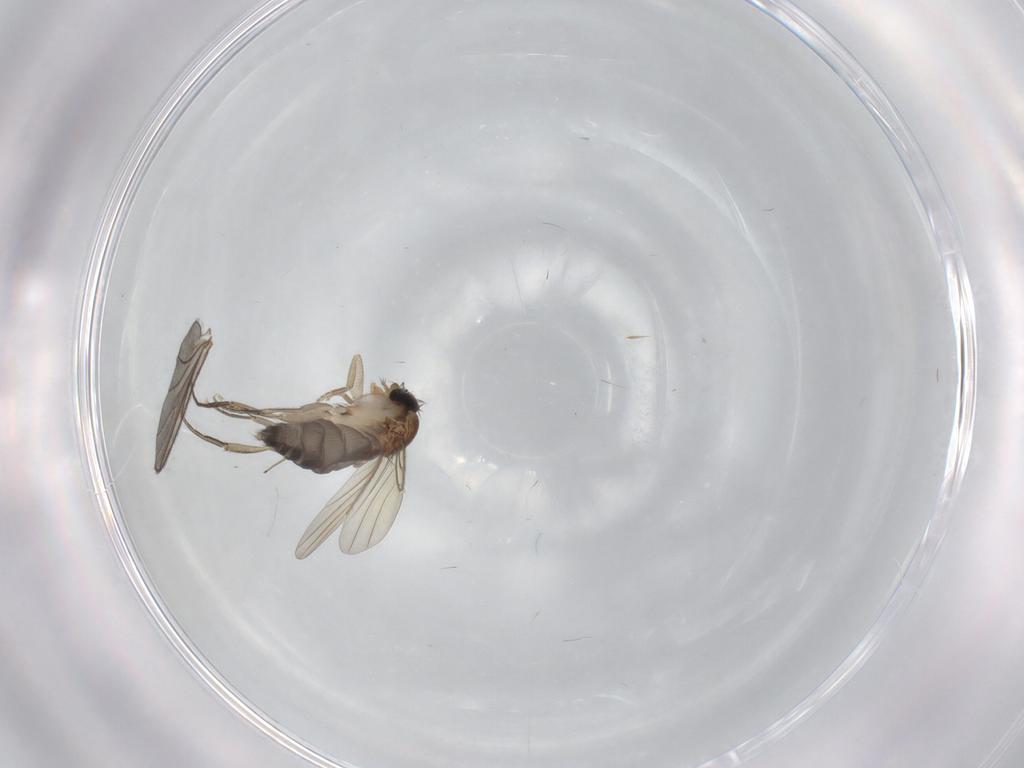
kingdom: Animalia
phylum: Arthropoda
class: Insecta
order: Diptera
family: Phoridae
